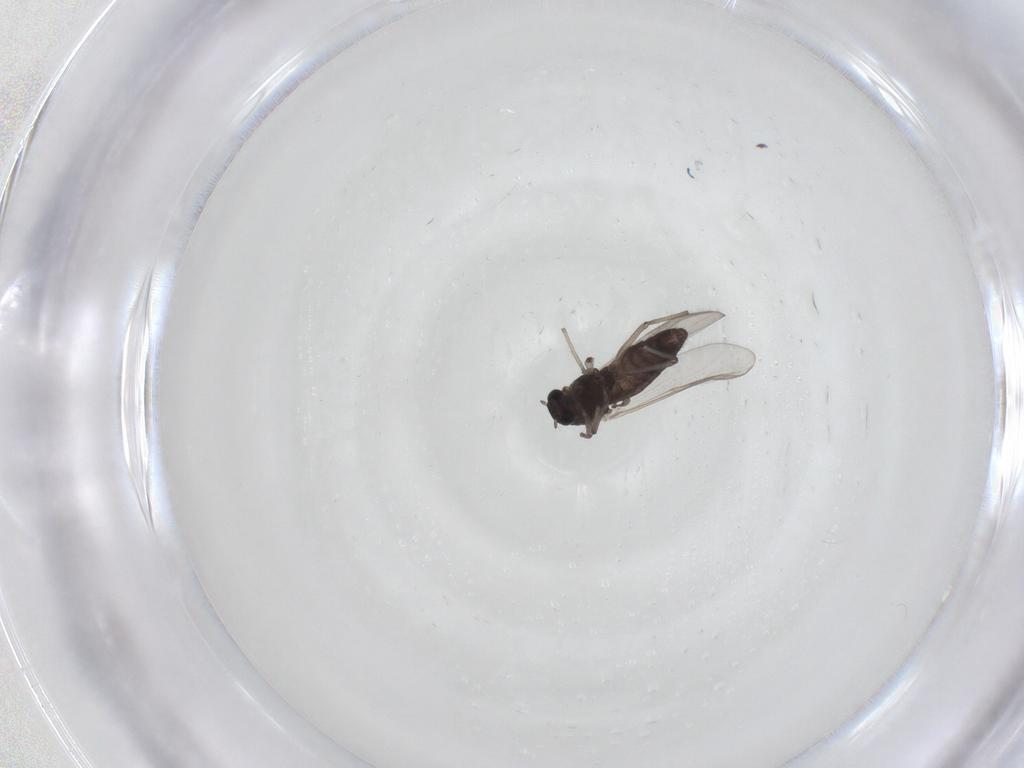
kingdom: Animalia
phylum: Arthropoda
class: Insecta
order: Diptera
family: Chironomidae
